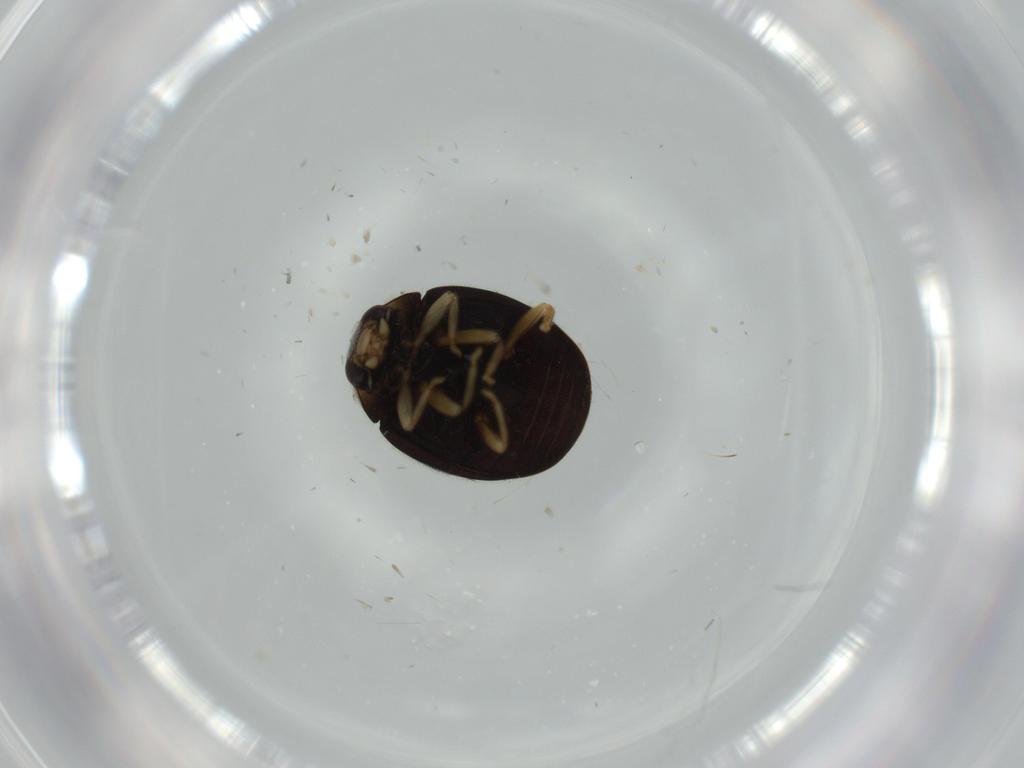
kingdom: Animalia
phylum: Arthropoda
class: Insecta
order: Coleoptera
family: Coccinellidae
